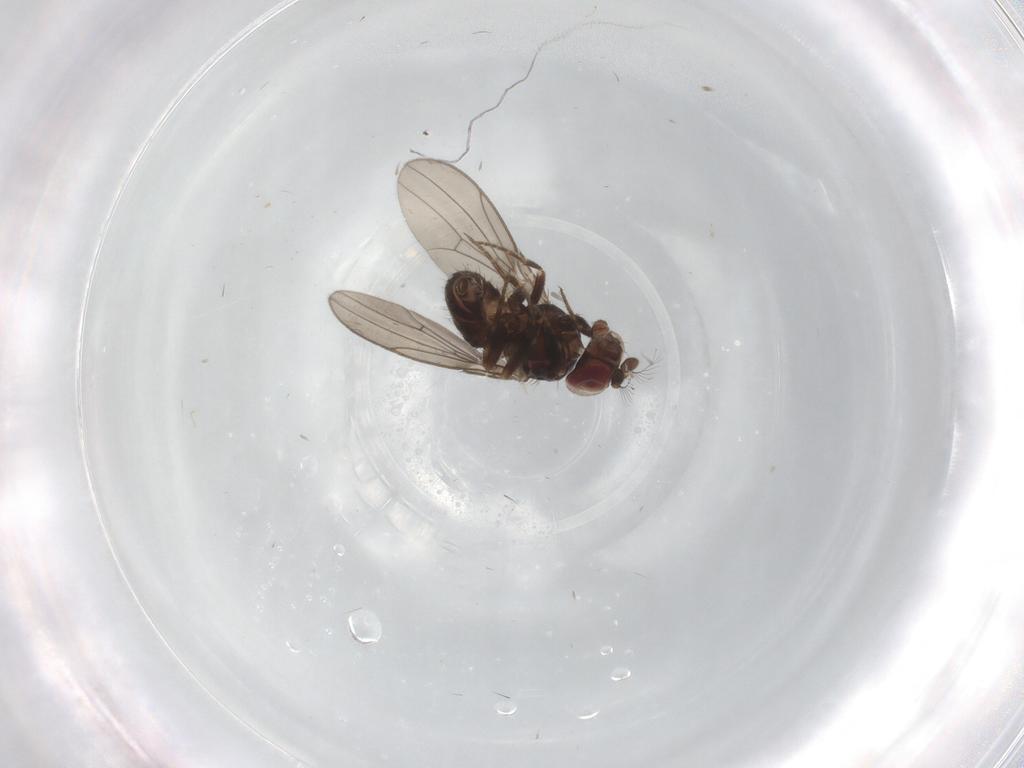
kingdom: Animalia
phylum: Arthropoda
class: Insecta
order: Diptera
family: Ephydridae
